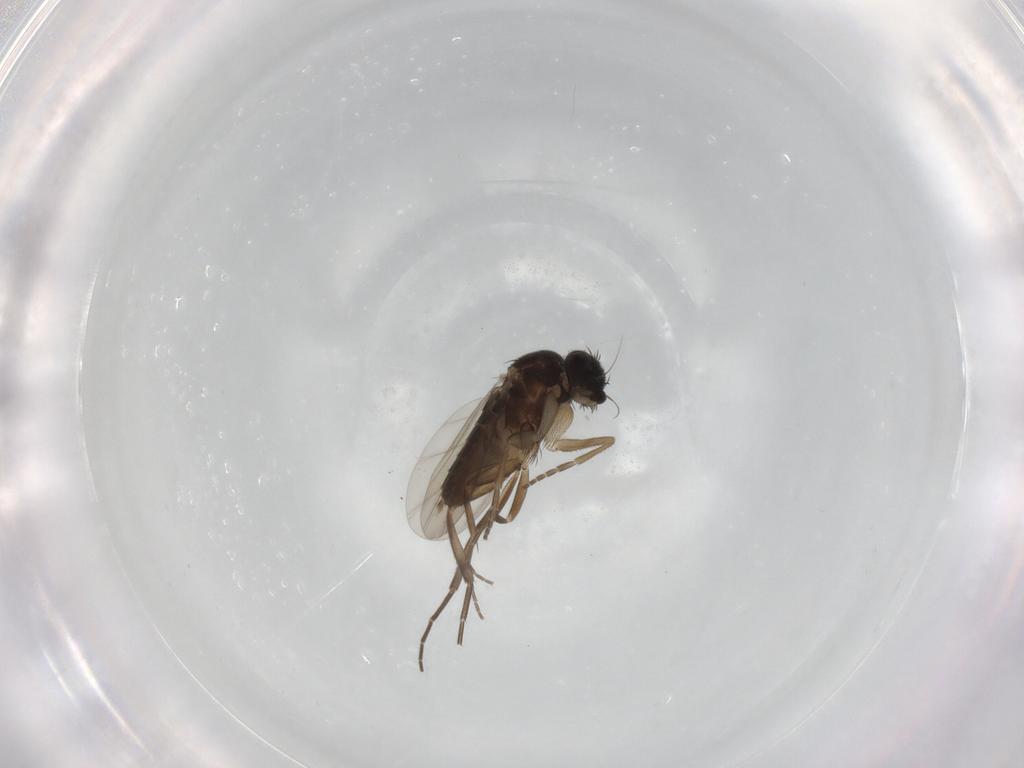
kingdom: Animalia
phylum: Arthropoda
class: Insecta
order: Diptera
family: Phoridae
